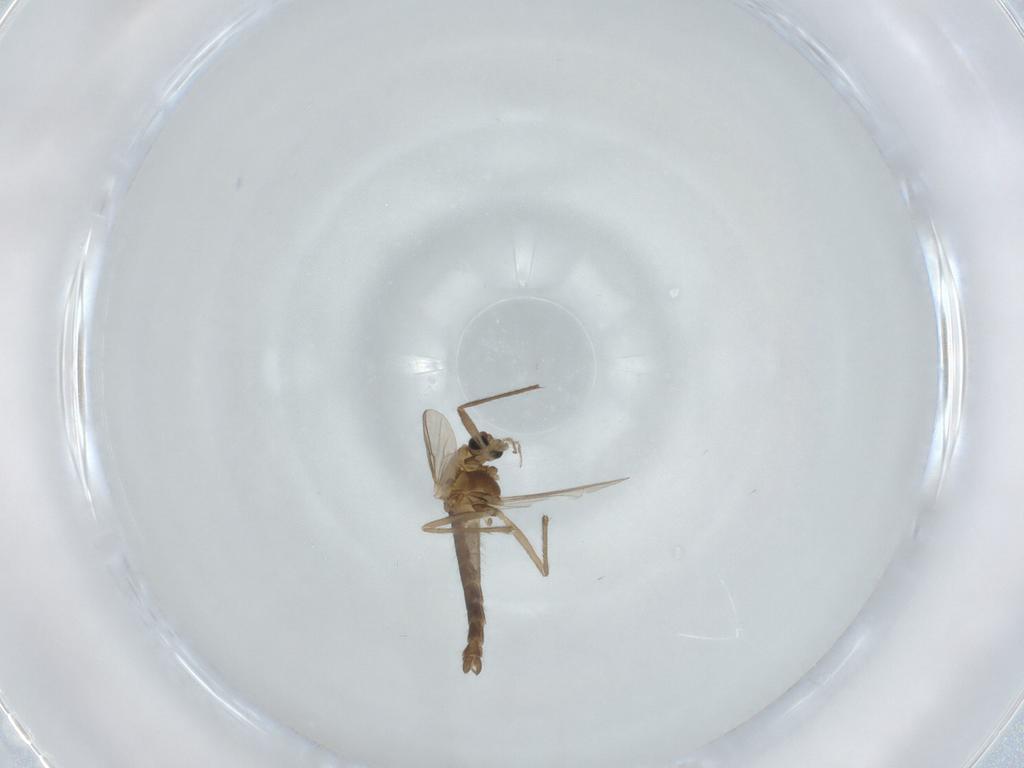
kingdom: Animalia
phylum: Arthropoda
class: Insecta
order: Diptera
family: Chironomidae
